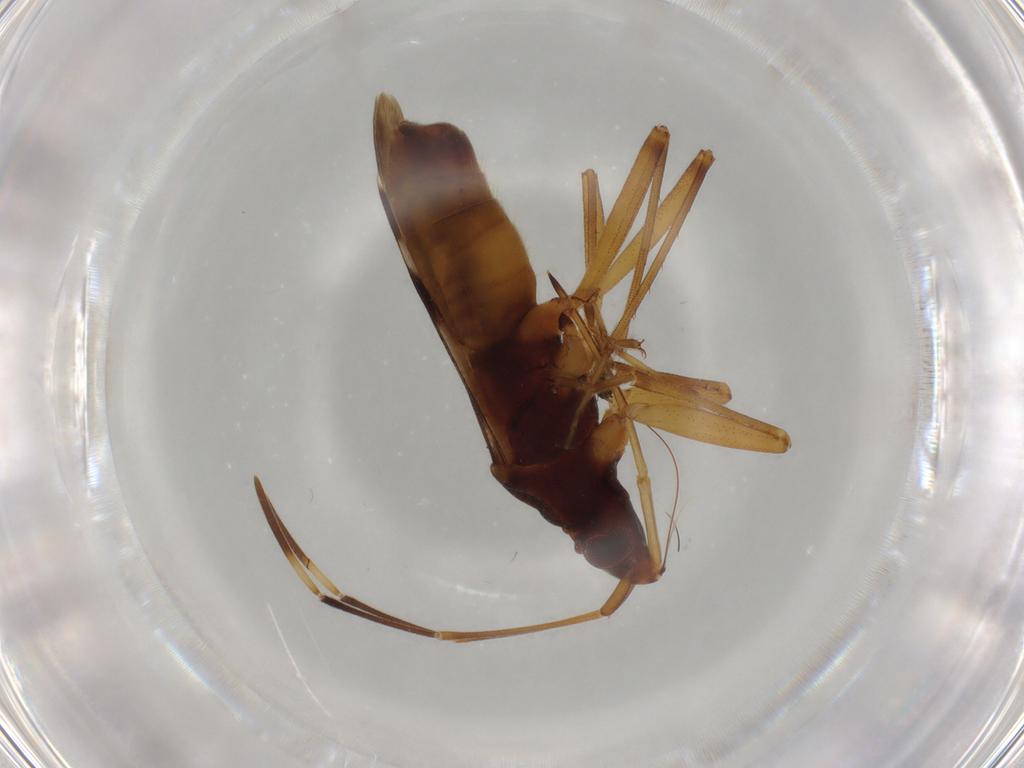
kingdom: Animalia
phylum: Arthropoda
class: Insecta
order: Hemiptera
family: Rhyparochromidae
